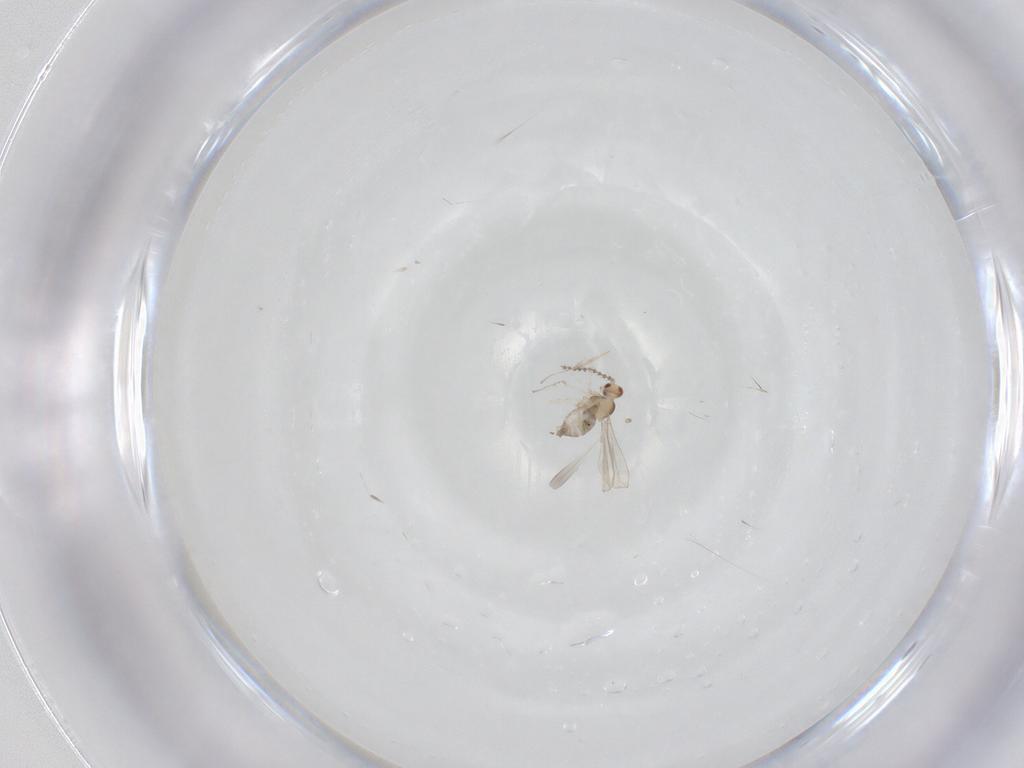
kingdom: Animalia
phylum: Arthropoda
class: Insecta
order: Diptera
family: Cecidomyiidae
